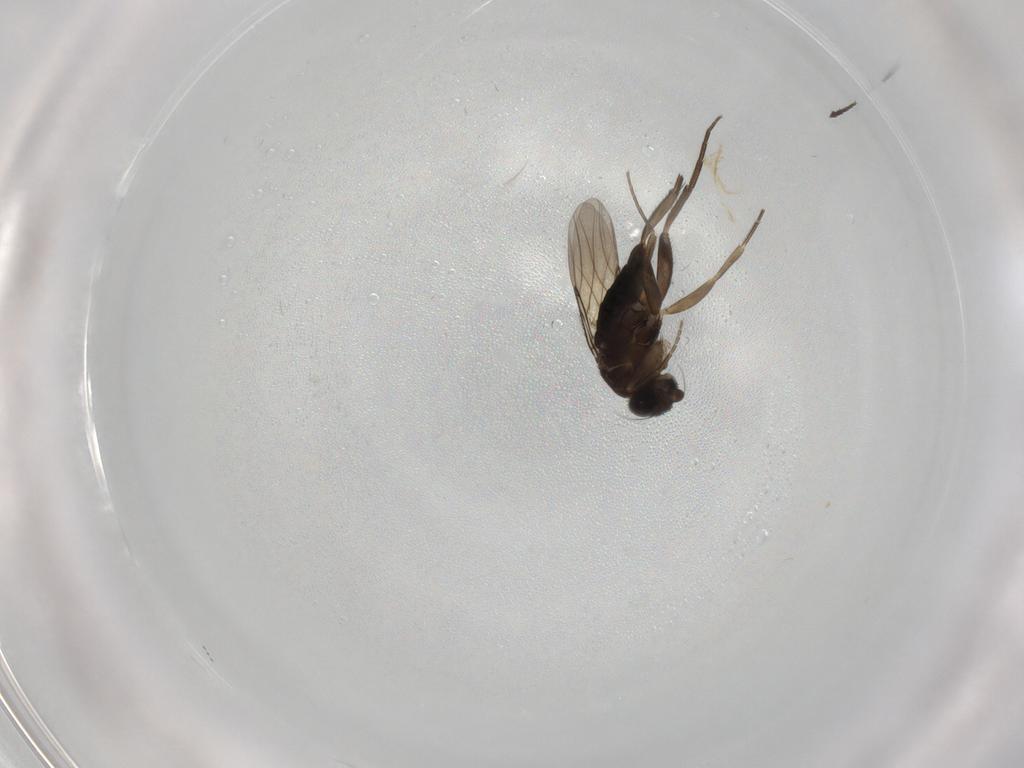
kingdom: Animalia
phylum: Arthropoda
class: Insecta
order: Diptera
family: Phoridae
